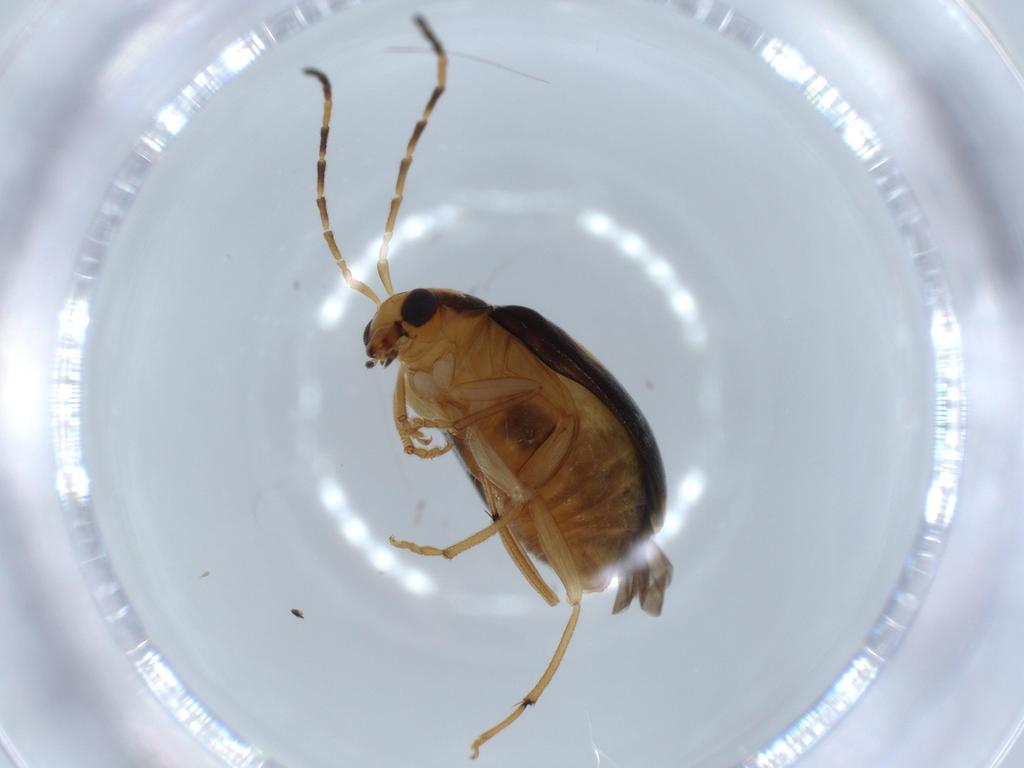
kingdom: Animalia
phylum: Arthropoda
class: Insecta
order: Coleoptera
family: Chrysomelidae
